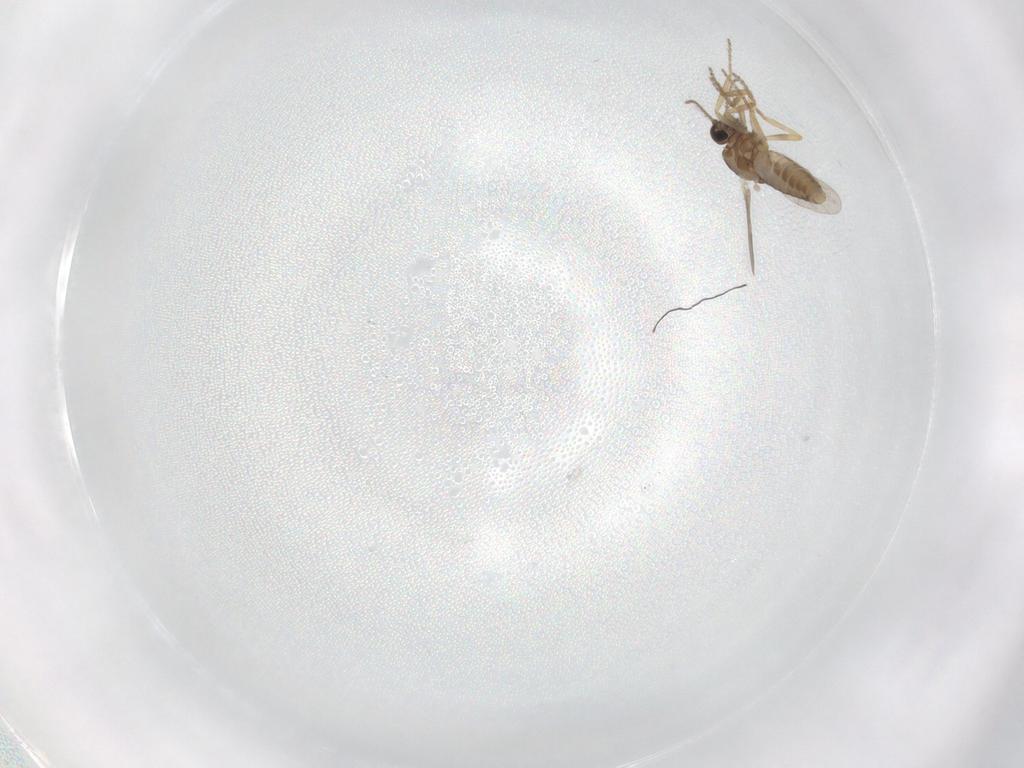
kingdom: Animalia
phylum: Arthropoda
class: Insecta
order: Diptera
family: Ceratopogonidae
